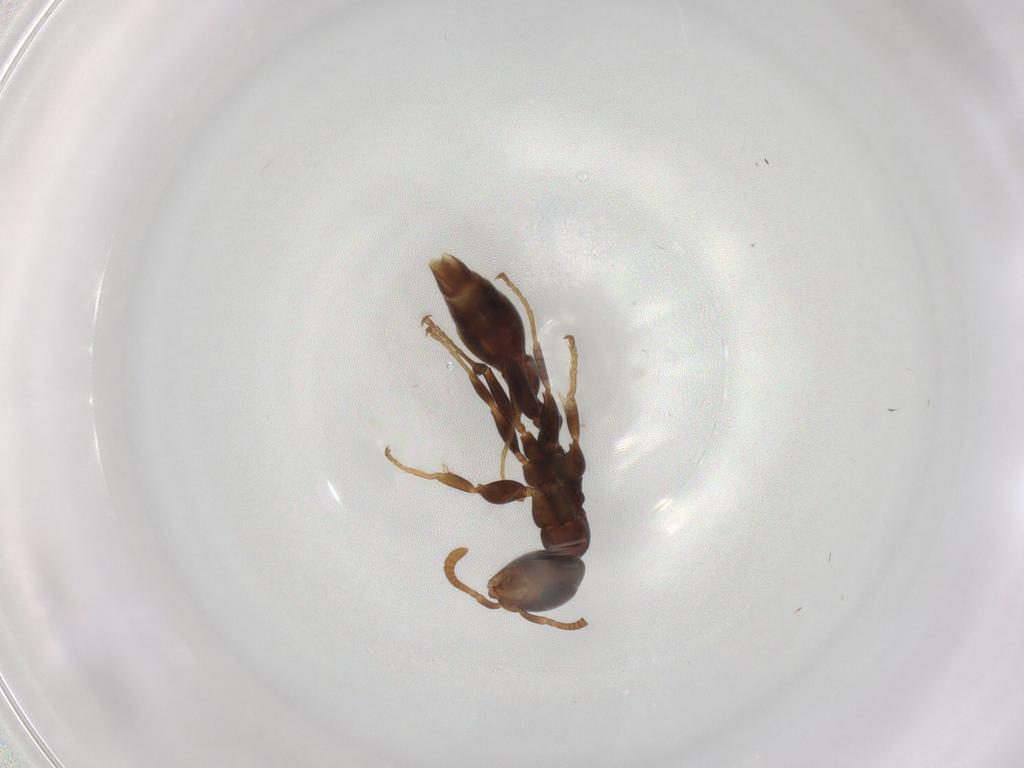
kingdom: Animalia
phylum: Arthropoda
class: Insecta
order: Hymenoptera
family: Formicidae
